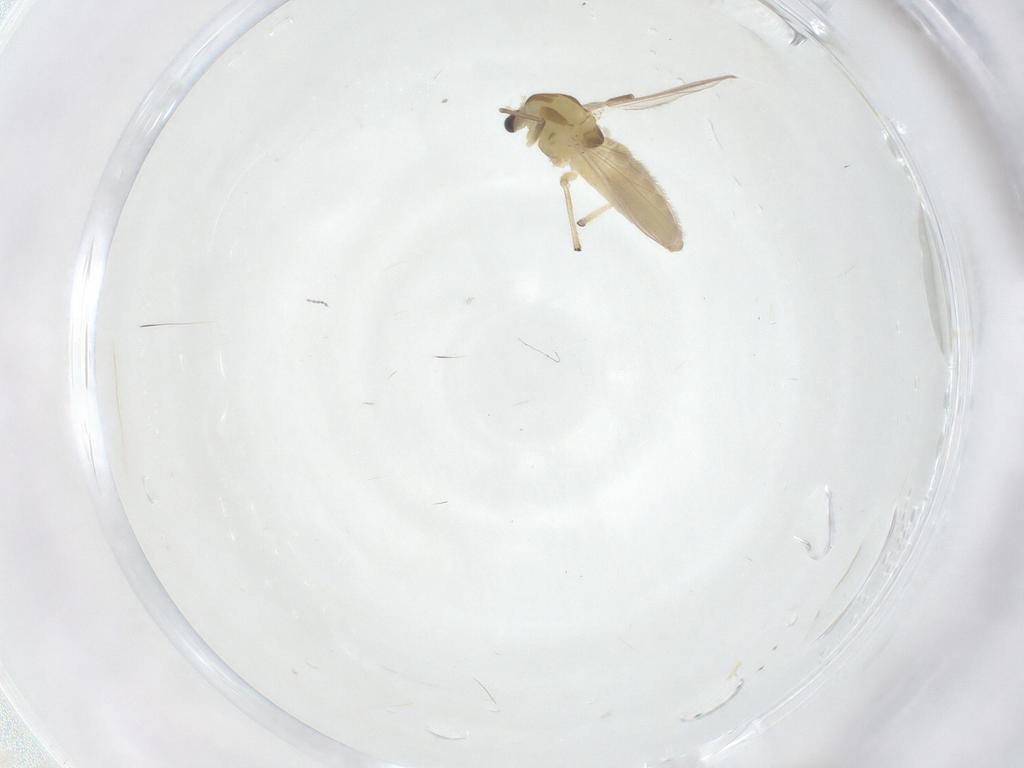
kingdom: Animalia
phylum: Arthropoda
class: Insecta
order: Diptera
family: Chironomidae
